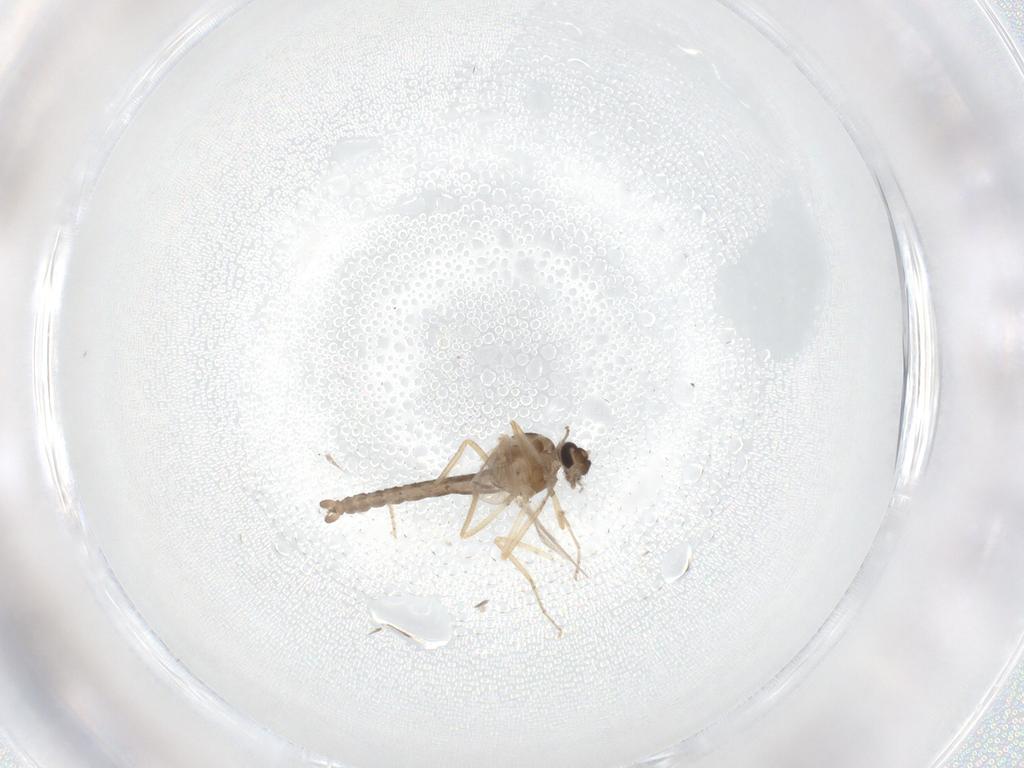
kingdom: Animalia
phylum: Arthropoda
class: Insecta
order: Diptera
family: Ceratopogonidae
